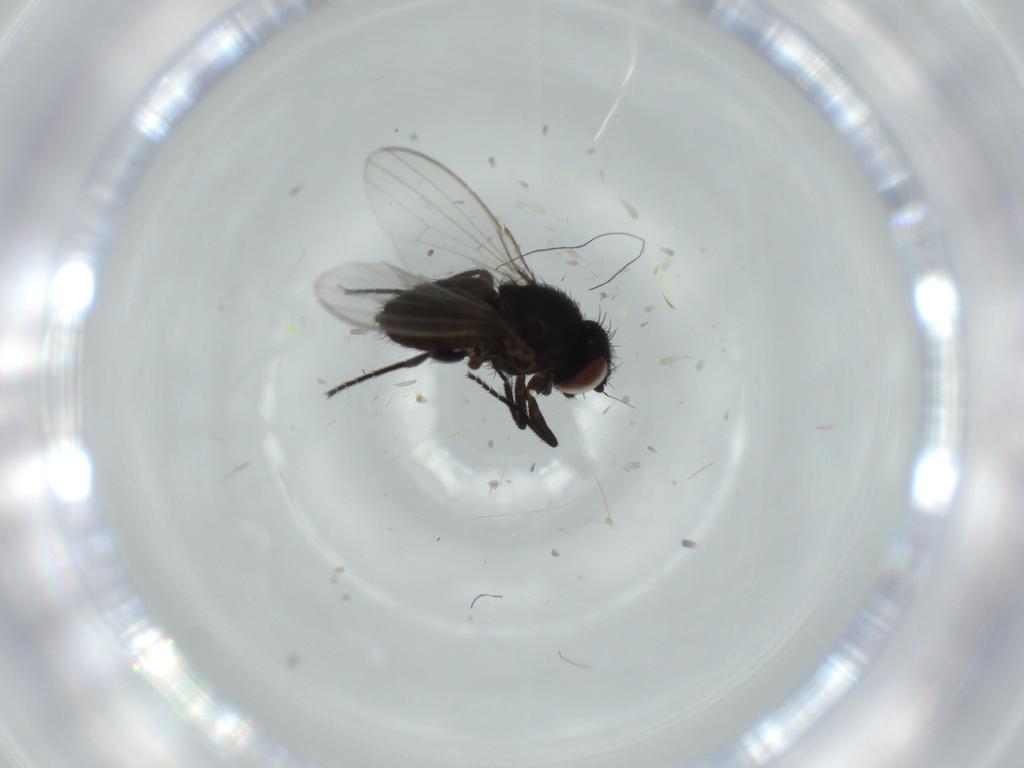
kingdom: Animalia
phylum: Arthropoda
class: Insecta
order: Diptera
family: Milichiidae
